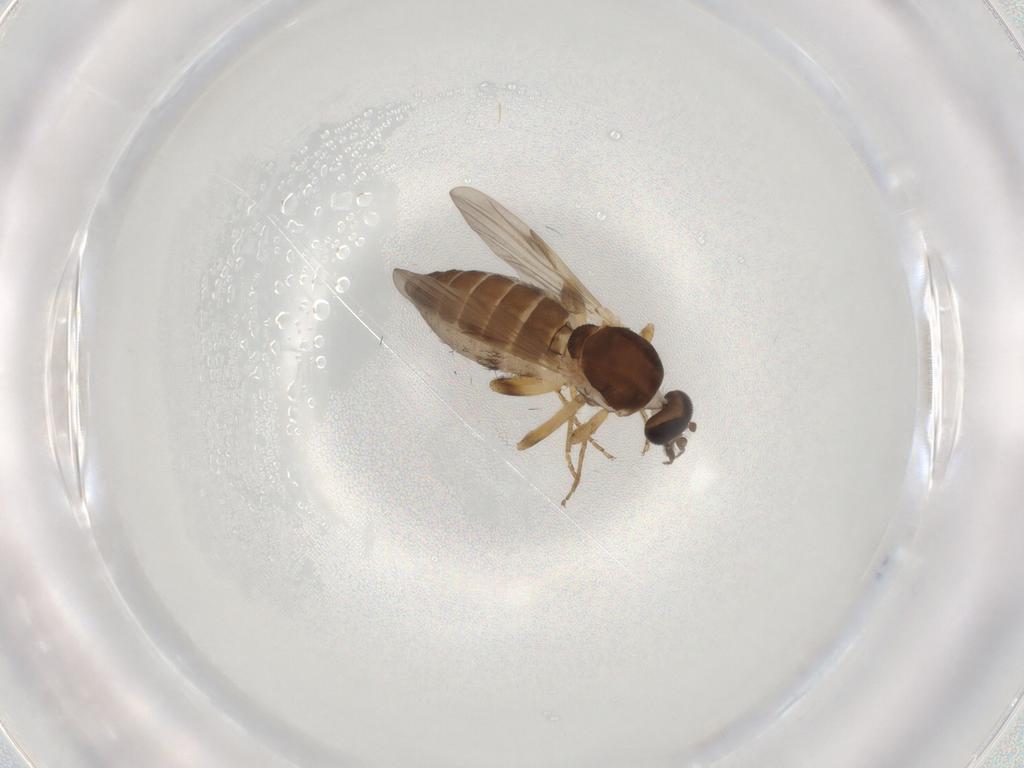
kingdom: Animalia
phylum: Arthropoda
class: Insecta
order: Diptera
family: Ceratopogonidae
